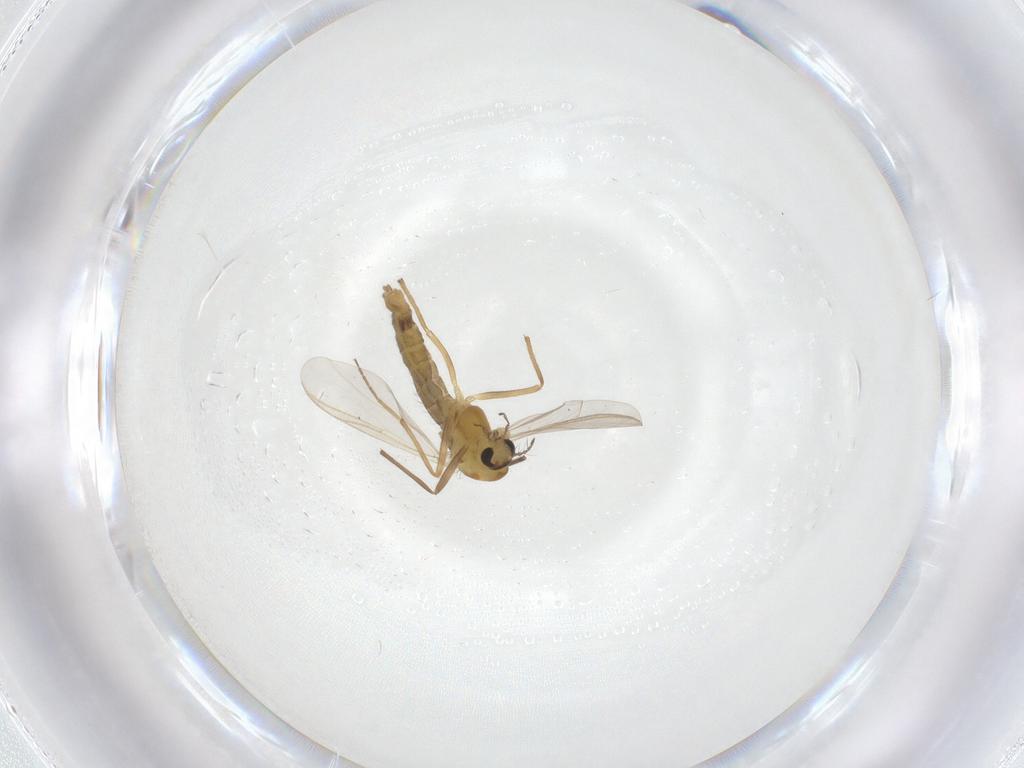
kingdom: Animalia
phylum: Arthropoda
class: Insecta
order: Diptera
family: Chironomidae
